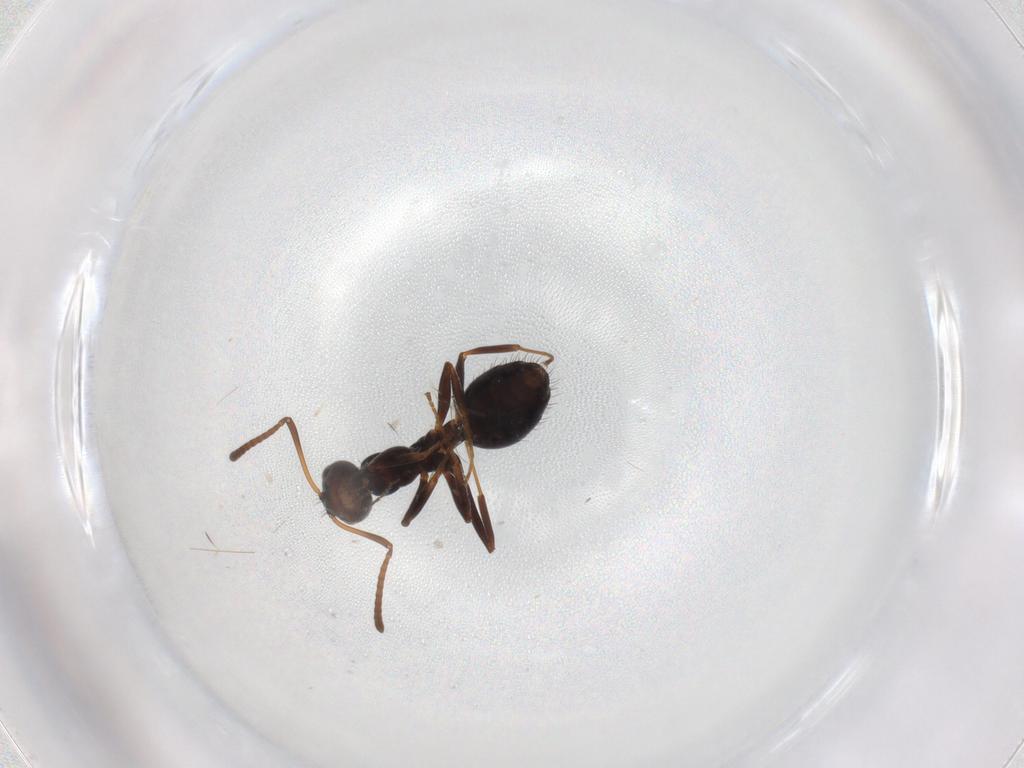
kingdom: Animalia
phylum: Arthropoda
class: Insecta
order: Hymenoptera
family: Formicidae
